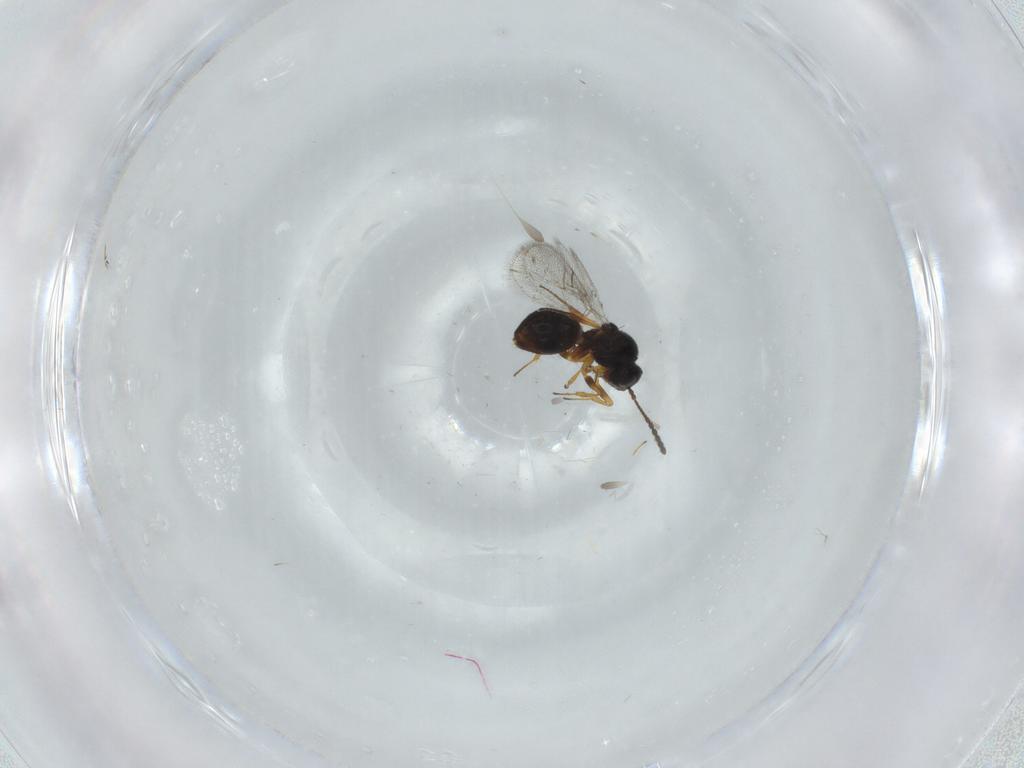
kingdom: Animalia
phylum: Arthropoda
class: Insecta
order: Hymenoptera
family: Figitidae
